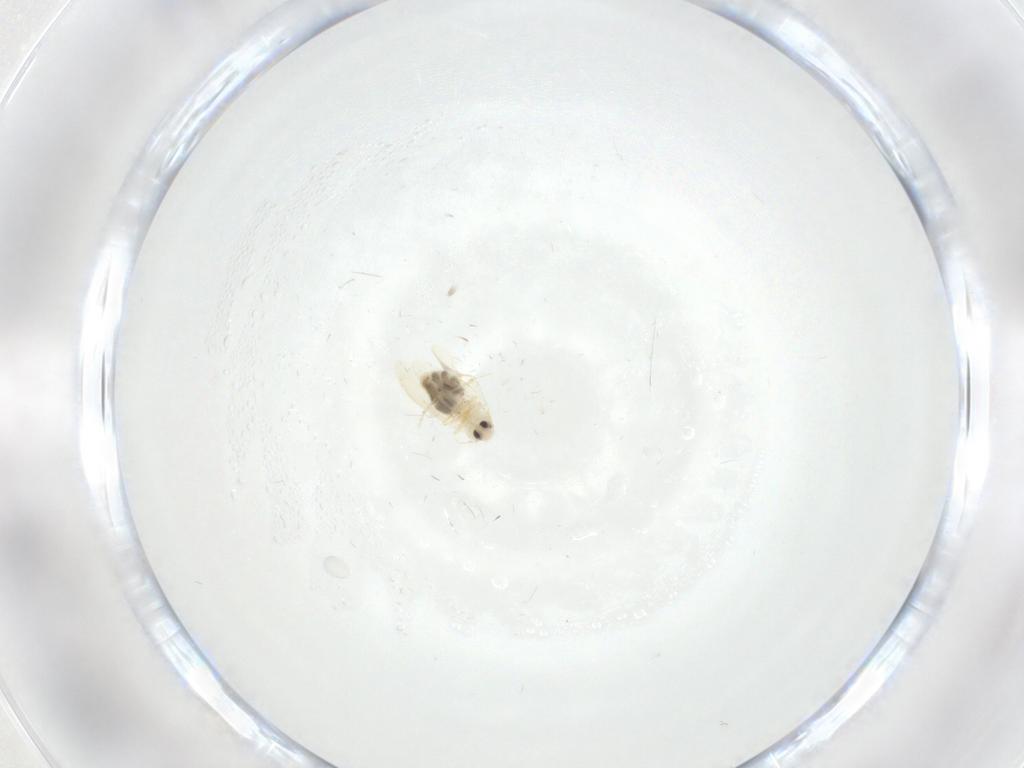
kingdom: Animalia
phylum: Arthropoda
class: Insecta
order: Hemiptera
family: Aleyrodidae
